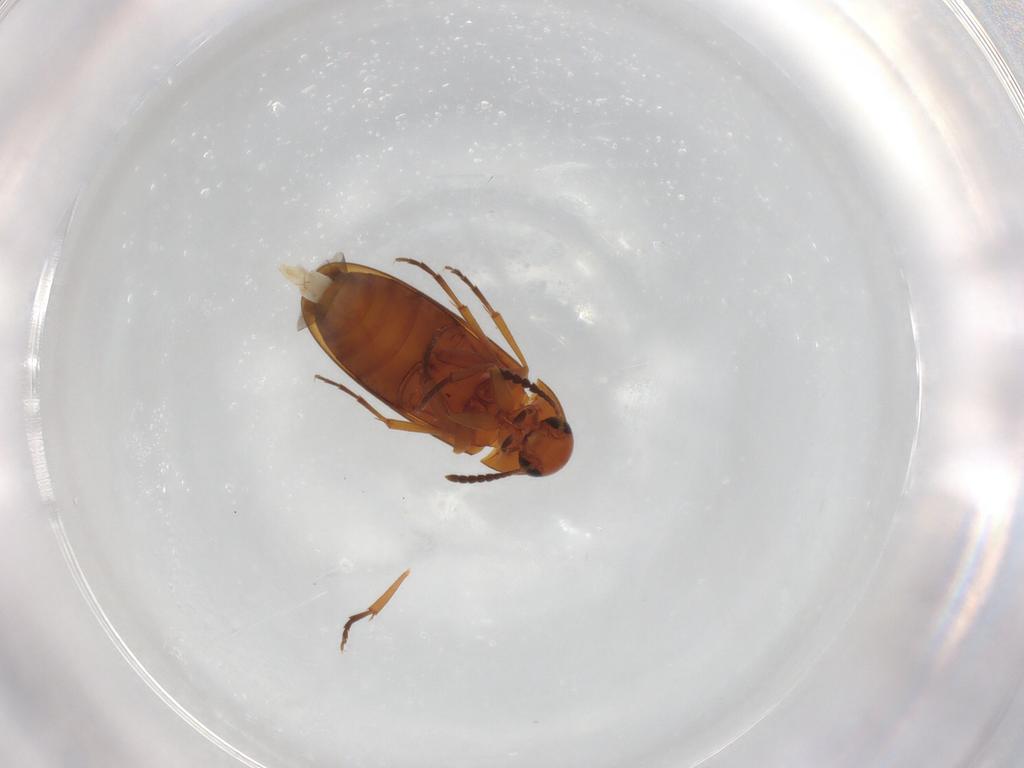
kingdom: Animalia
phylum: Arthropoda
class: Insecta
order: Coleoptera
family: Scraptiidae
